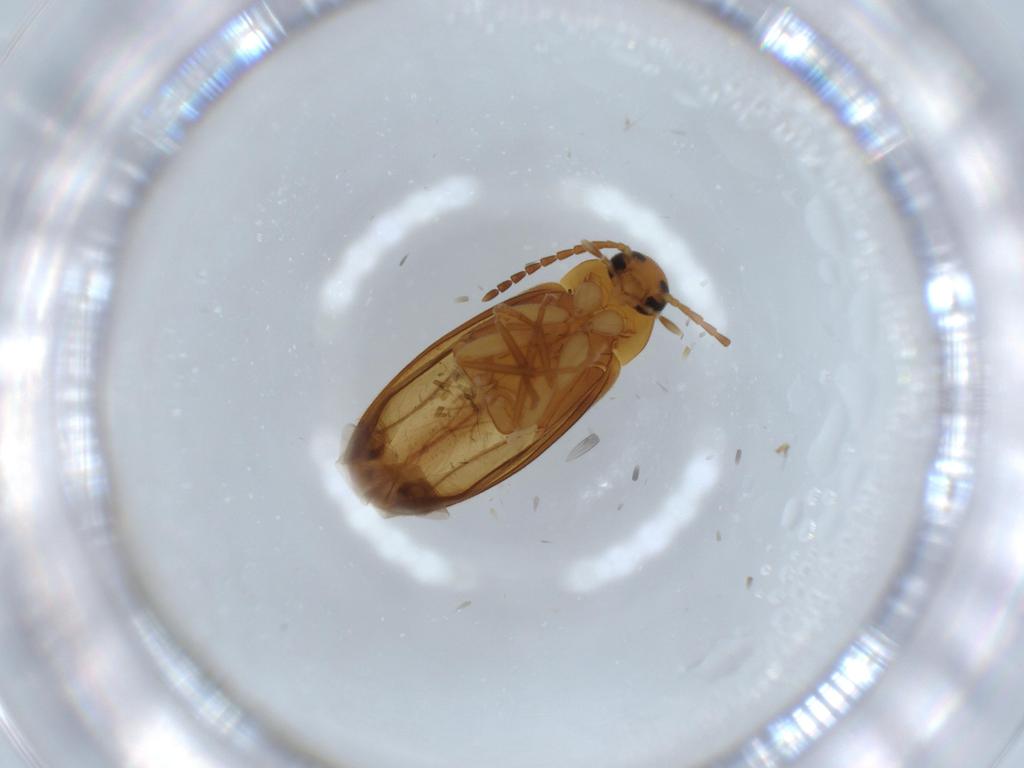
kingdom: Animalia
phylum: Arthropoda
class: Insecta
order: Coleoptera
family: Scraptiidae
